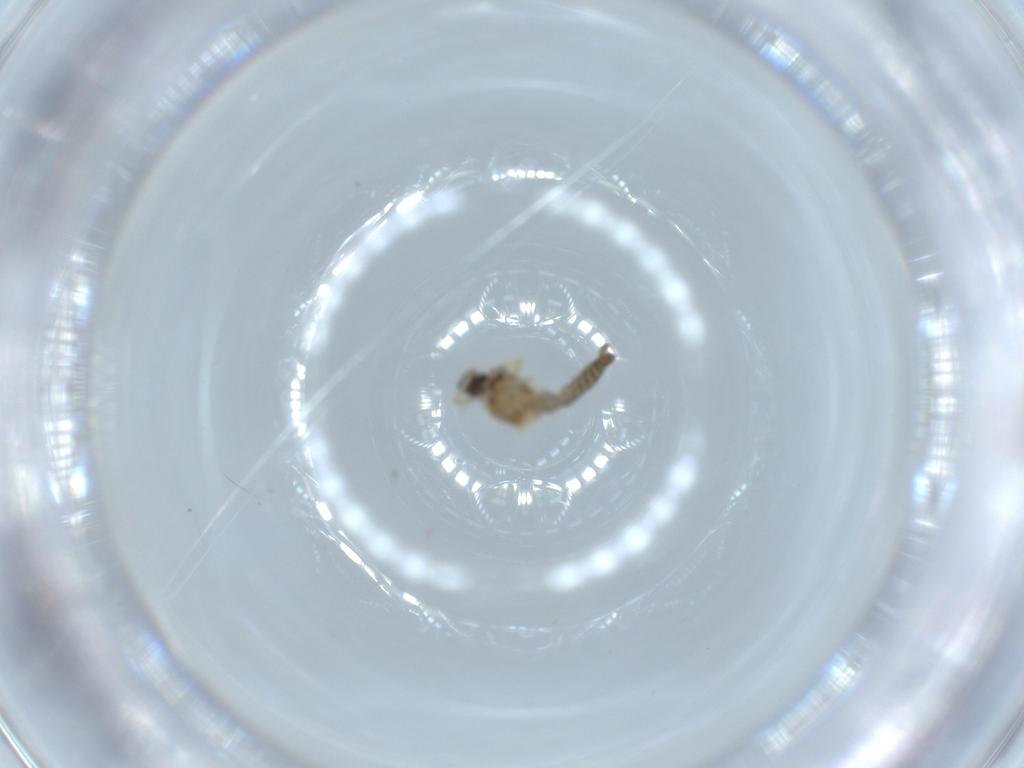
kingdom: Animalia
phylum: Arthropoda
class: Insecta
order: Diptera
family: Ceratopogonidae
